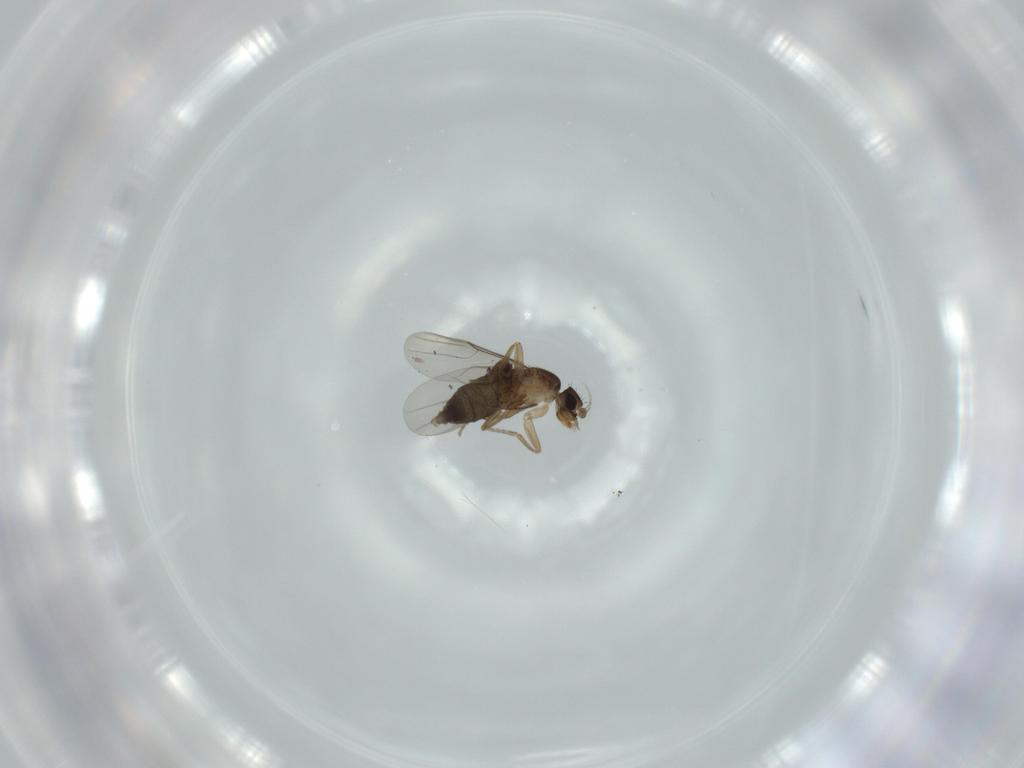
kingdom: Animalia
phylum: Arthropoda
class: Insecta
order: Diptera
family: Phoridae
